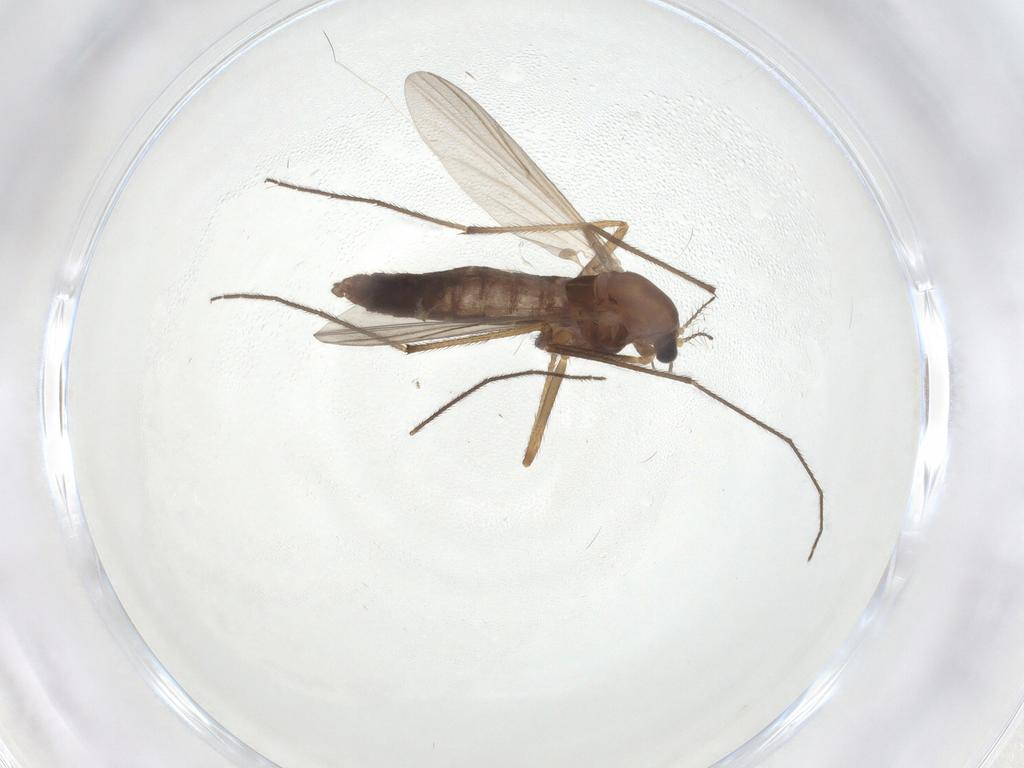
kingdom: Animalia
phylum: Arthropoda
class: Insecta
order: Diptera
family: Chironomidae
